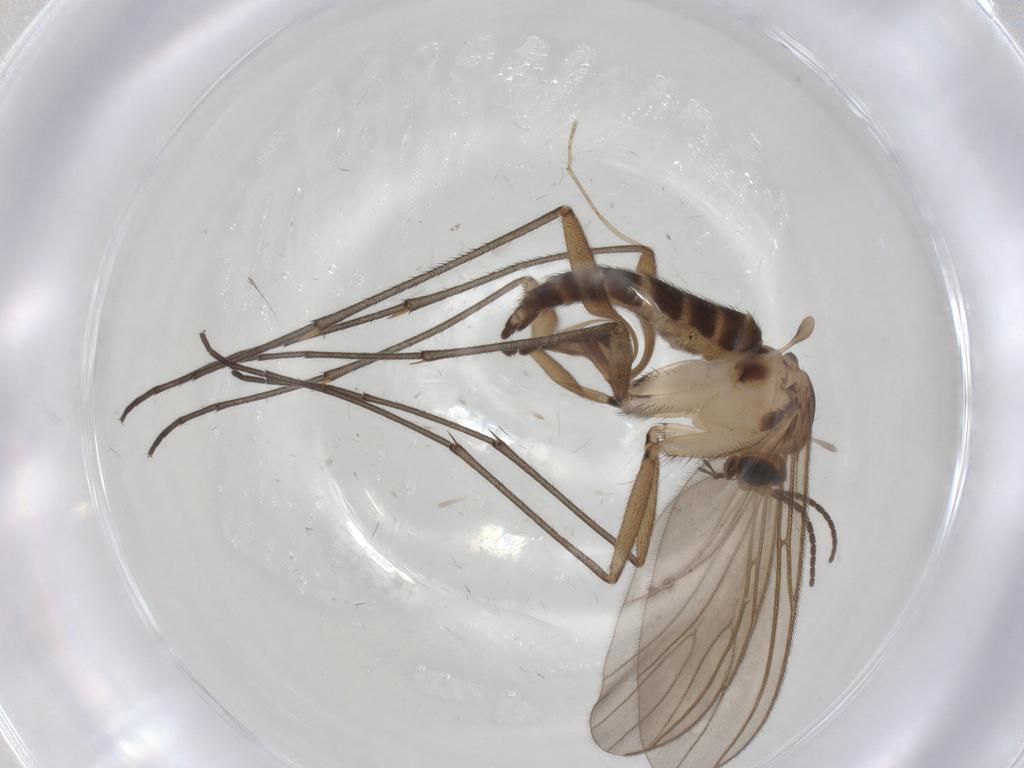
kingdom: Animalia
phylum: Arthropoda
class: Insecta
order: Diptera
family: Sciaridae
